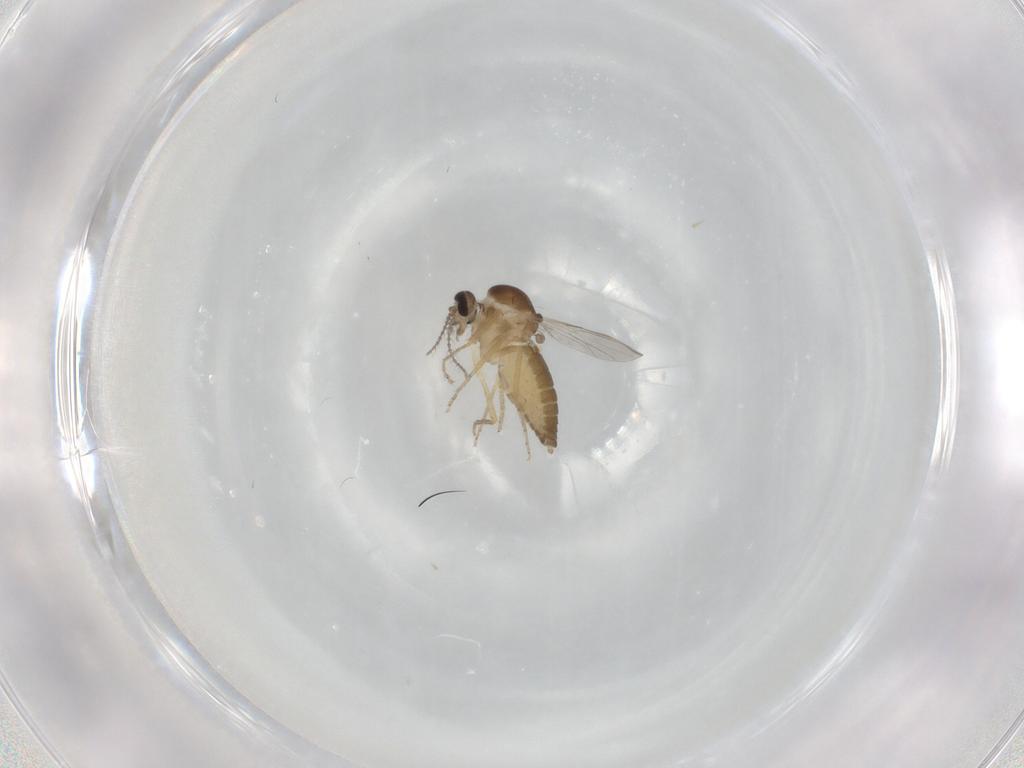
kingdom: Animalia
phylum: Arthropoda
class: Insecta
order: Diptera
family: Ceratopogonidae
